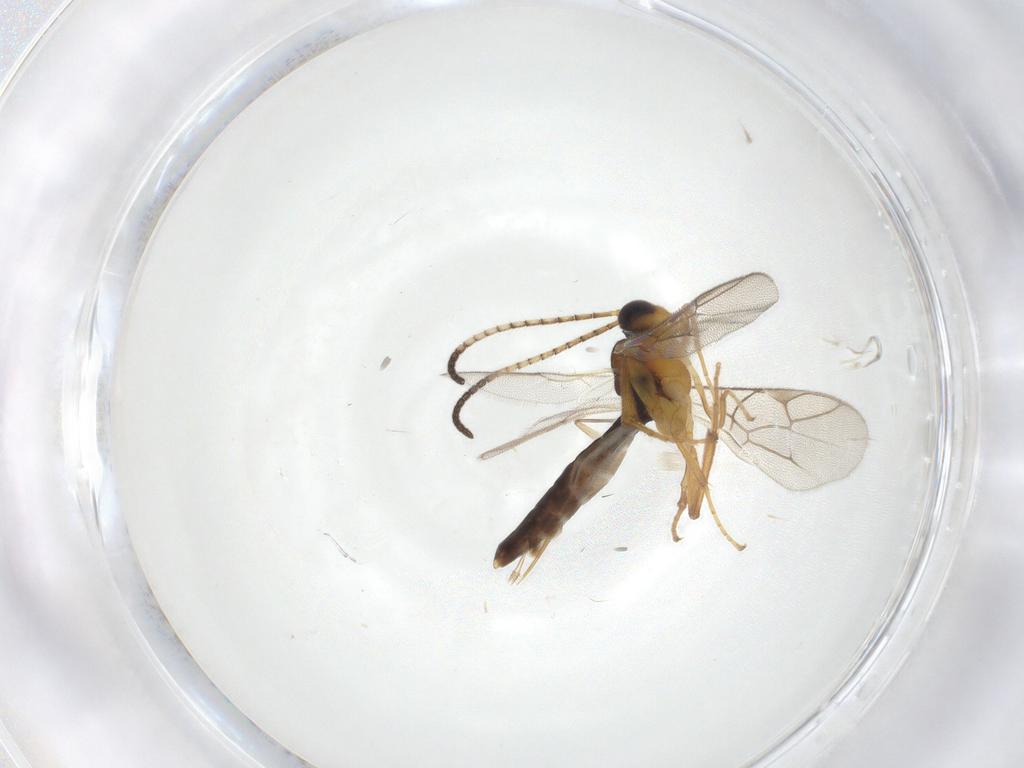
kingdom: Animalia
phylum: Arthropoda
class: Insecta
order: Hymenoptera
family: Ichneumonidae
